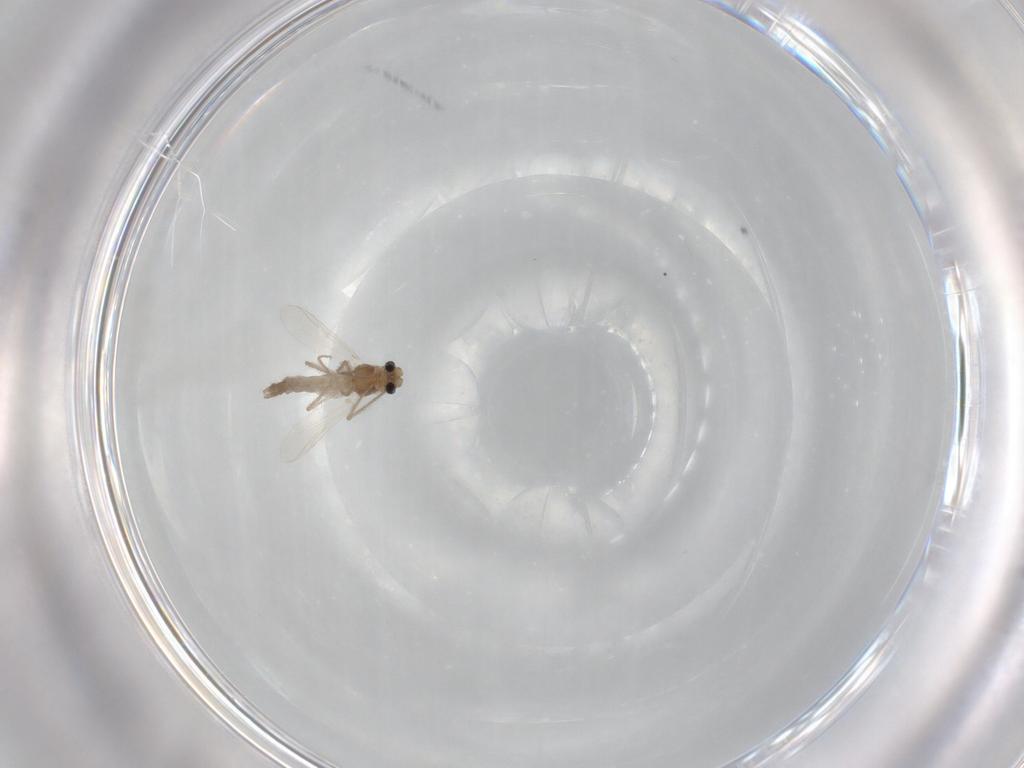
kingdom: Animalia
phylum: Arthropoda
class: Insecta
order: Diptera
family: Chironomidae
